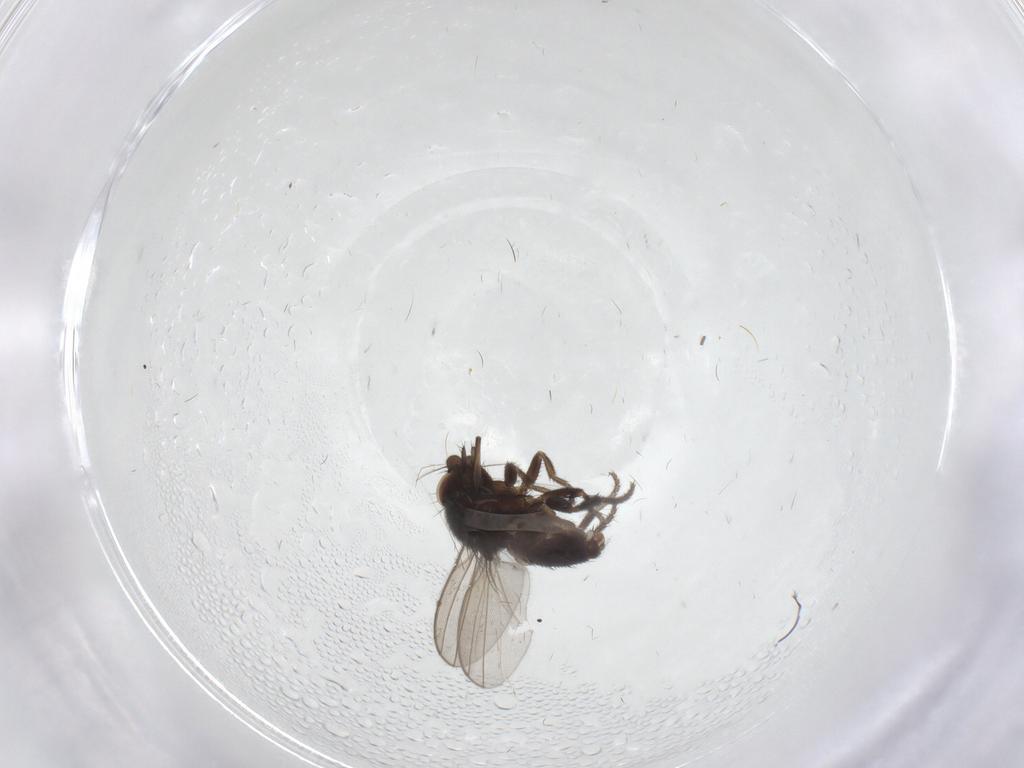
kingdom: Animalia
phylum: Arthropoda
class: Insecta
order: Diptera
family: Milichiidae
